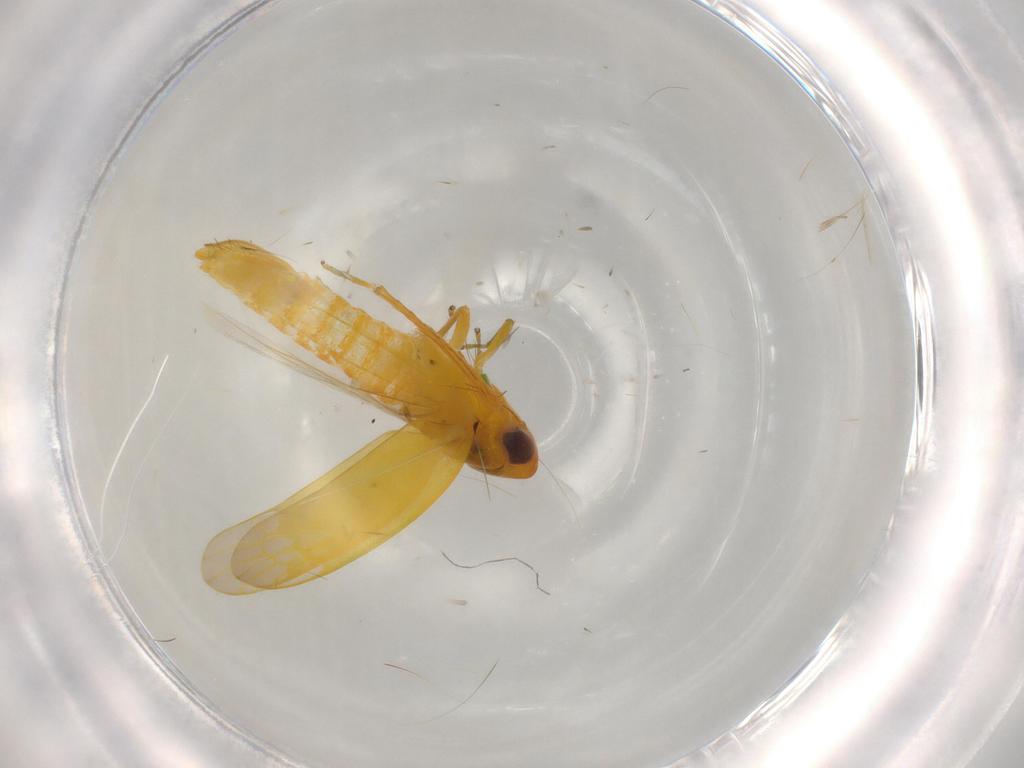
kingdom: Animalia
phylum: Arthropoda
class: Insecta
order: Hemiptera
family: Cicadellidae
